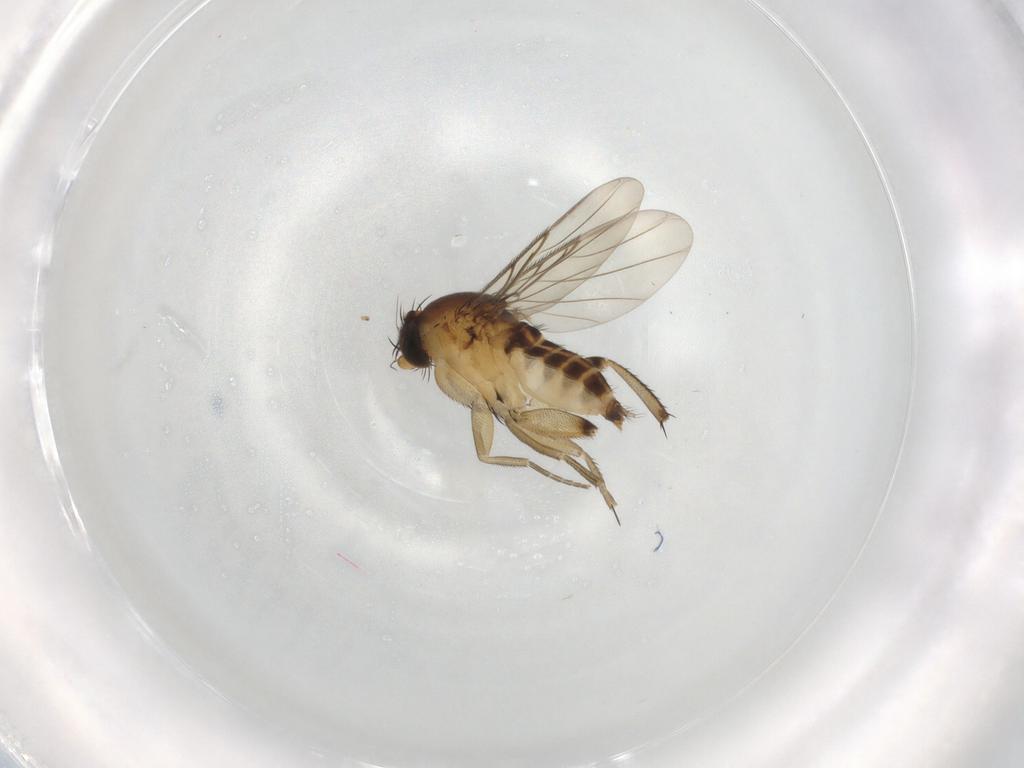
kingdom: Animalia
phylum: Arthropoda
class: Insecta
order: Diptera
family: Phoridae
